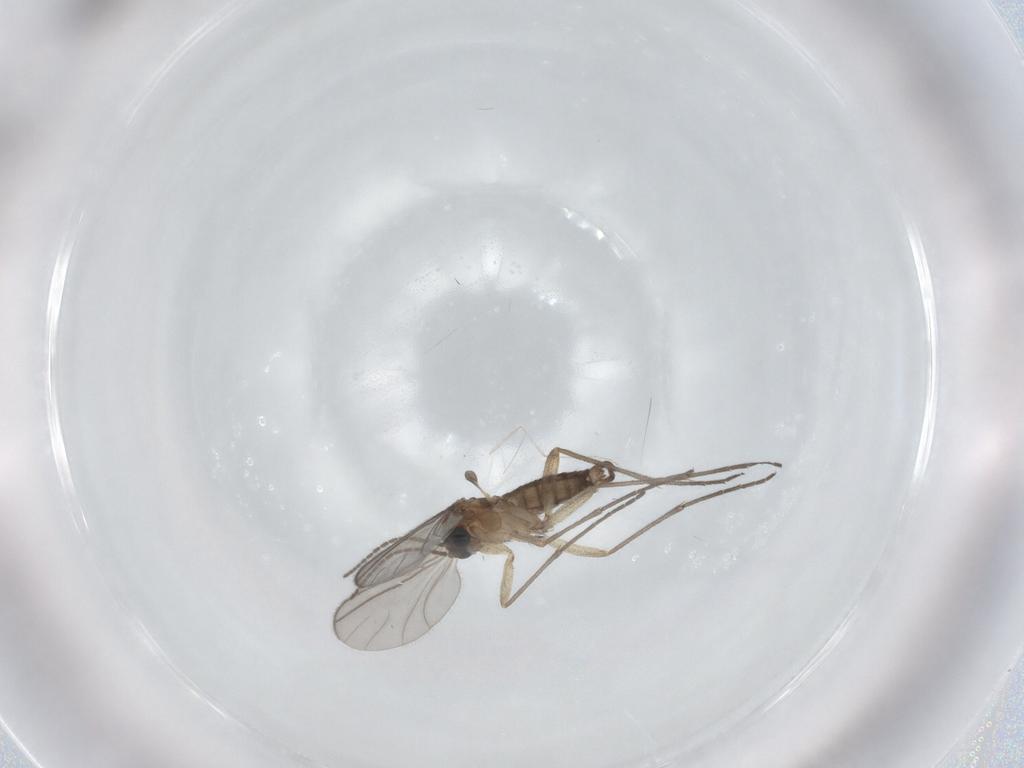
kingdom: Animalia
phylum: Arthropoda
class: Insecta
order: Diptera
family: Cecidomyiidae
